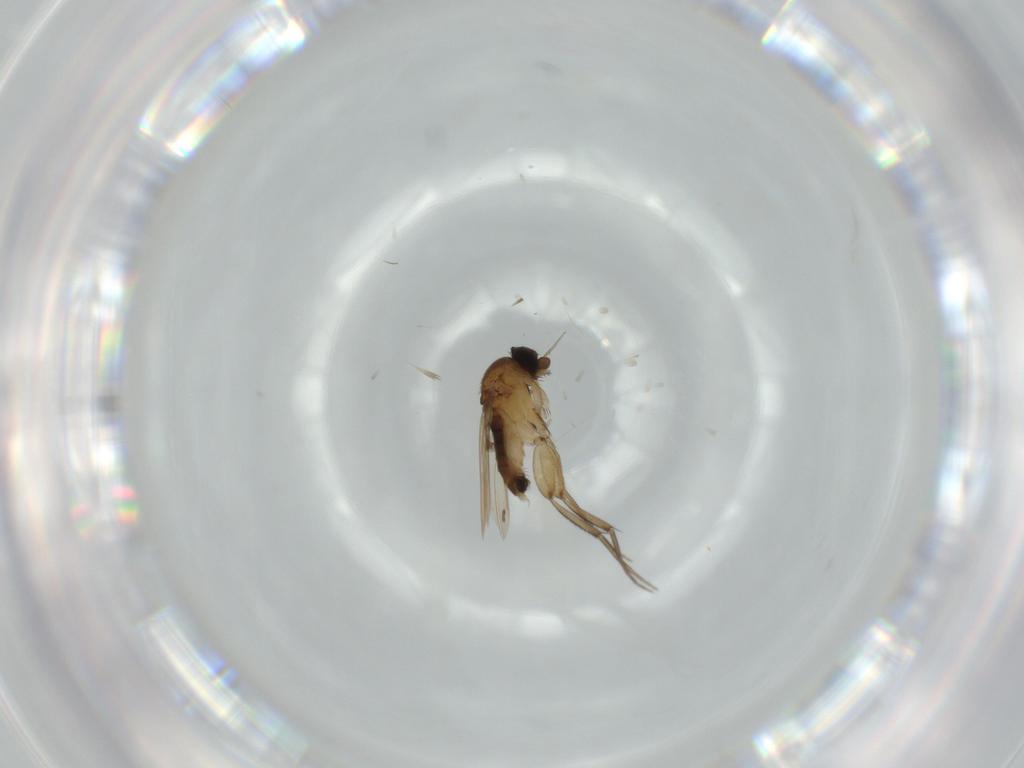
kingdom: Animalia
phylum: Arthropoda
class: Insecta
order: Diptera
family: Phoridae
